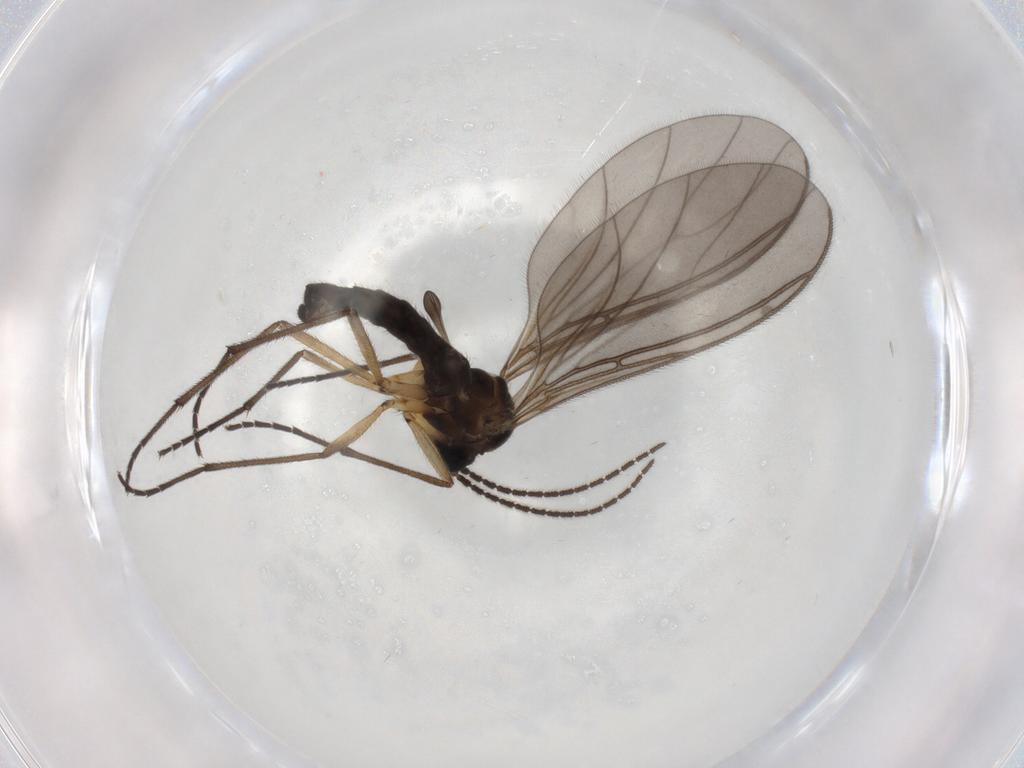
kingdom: Animalia
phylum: Arthropoda
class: Insecta
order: Diptera
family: Sciaridae
